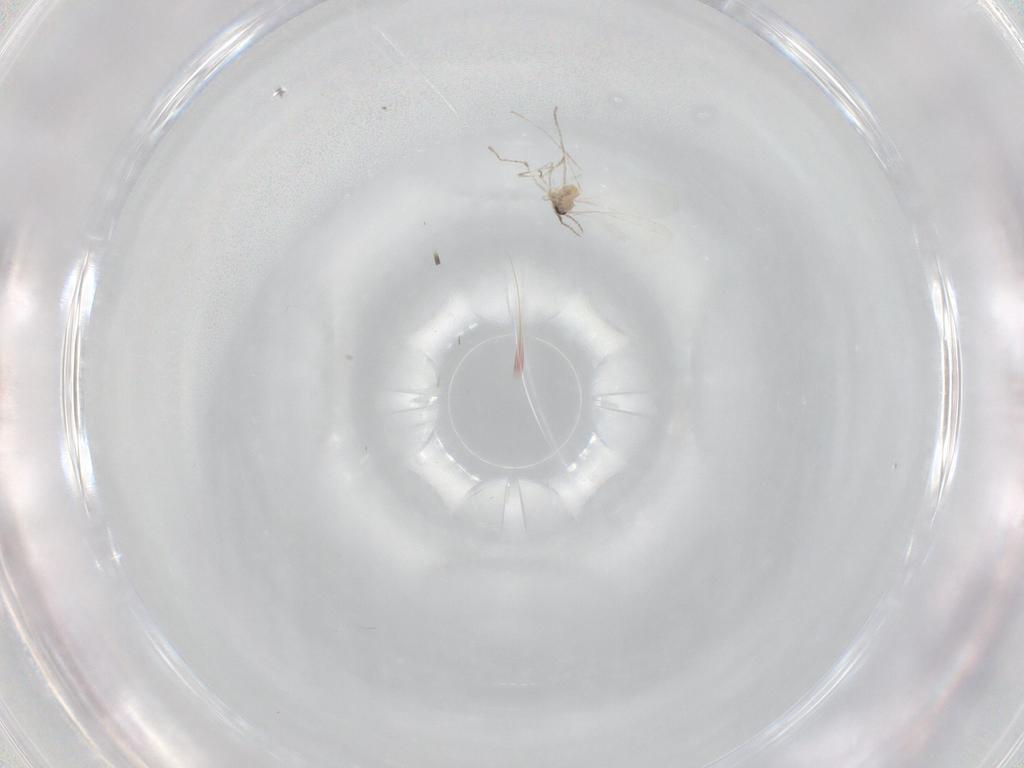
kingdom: Animalia
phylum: Arthropoda
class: Insecta
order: Diptera
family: Cecidomyiidae
